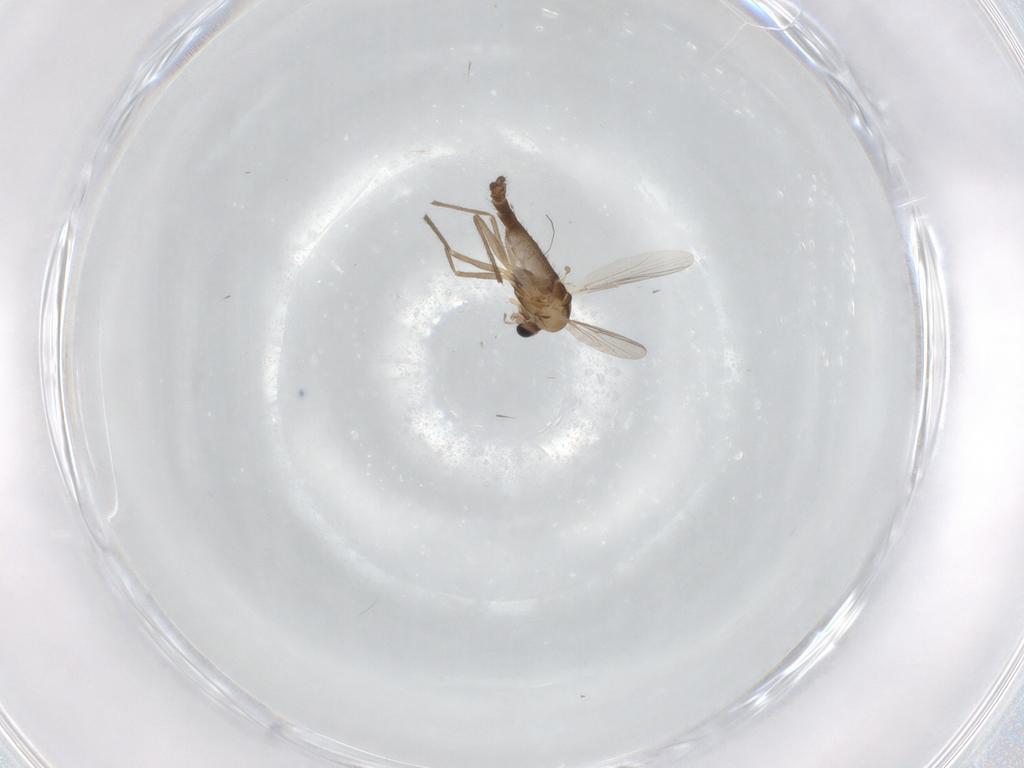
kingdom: Animalia
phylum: Arthropoda
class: Insecta
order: Diptera
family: Chironomidae
